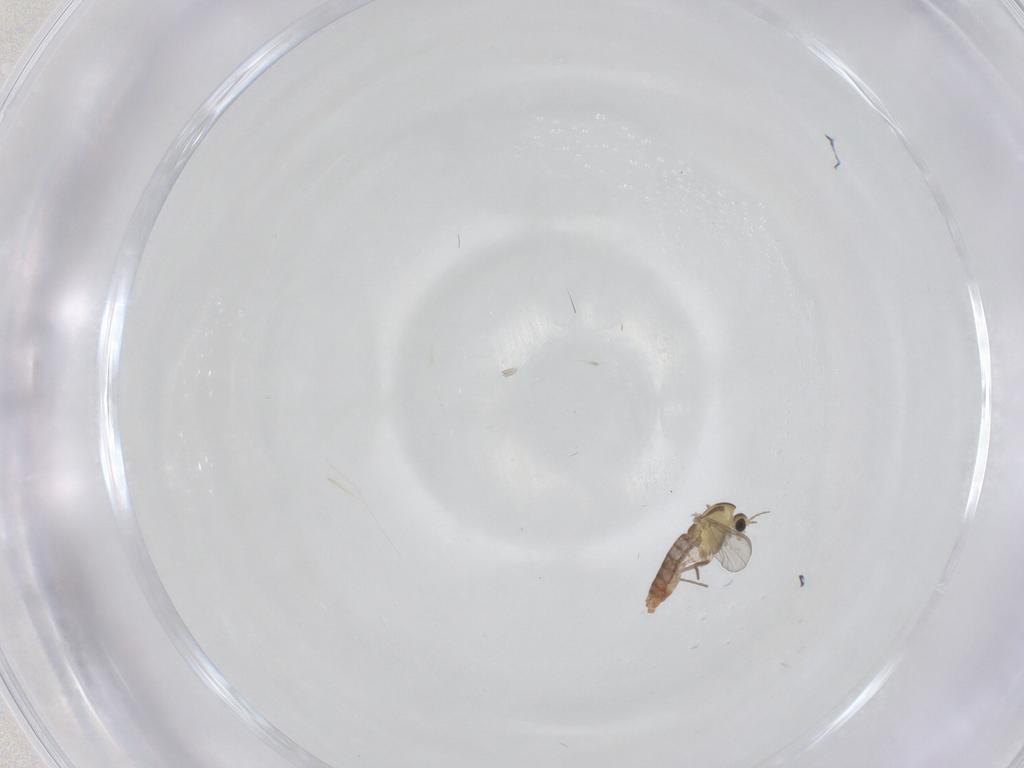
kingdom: Animalia
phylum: Arthropoda
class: Insecta
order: Diptera
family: Chironomidae
